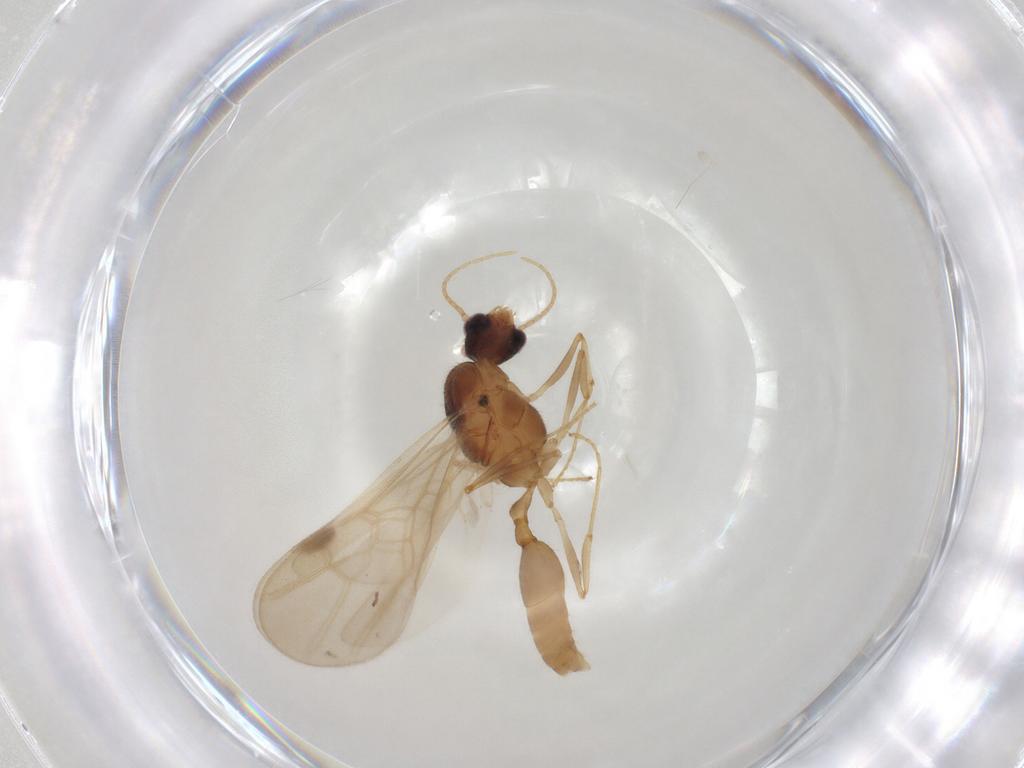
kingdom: Animalia
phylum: Arthropoda
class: Insecta
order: Hymenoptera
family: Formicidae
